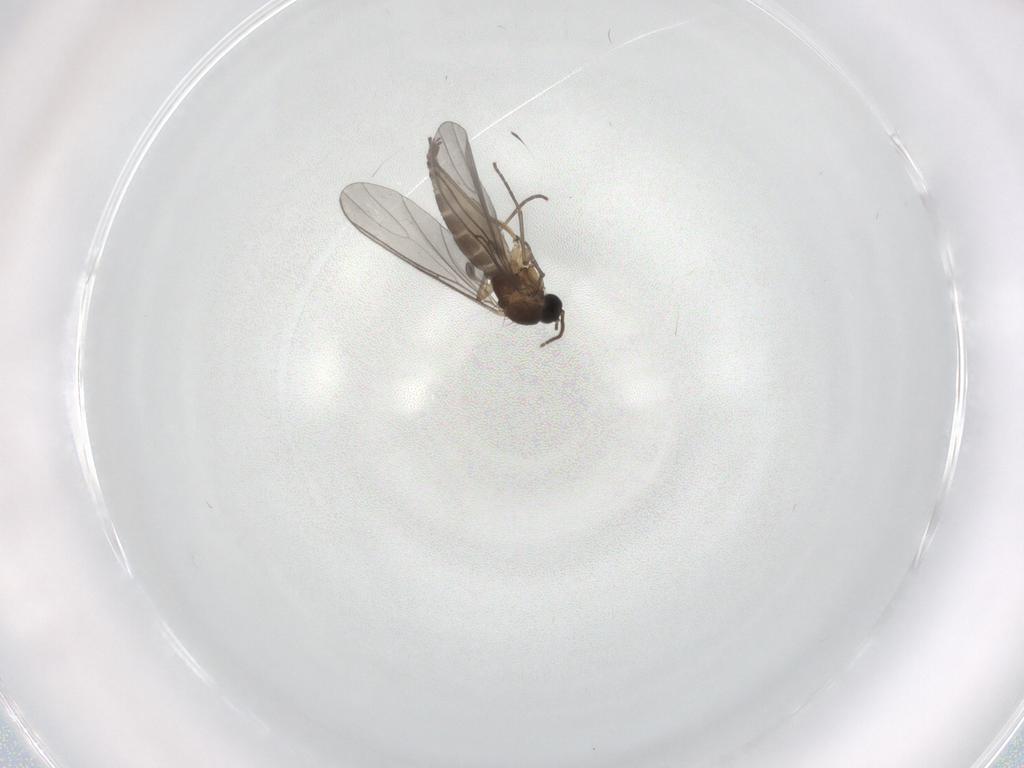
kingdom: Animalia
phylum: Arthropoda
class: Insecta
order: Diptera
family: Sciaridae
